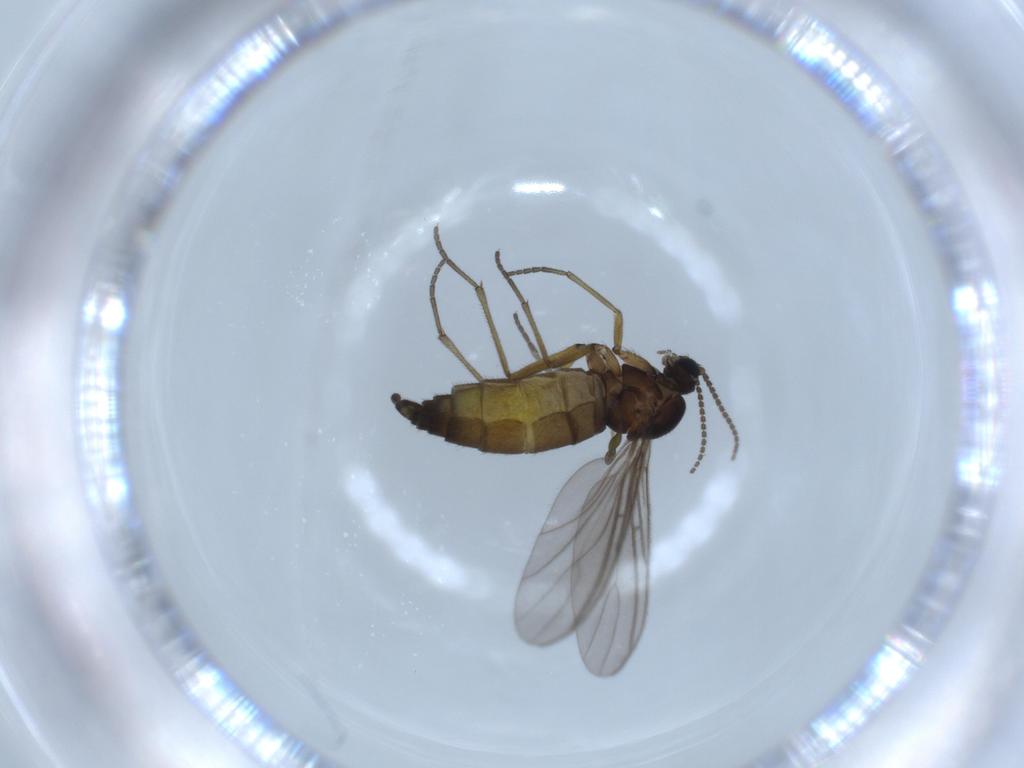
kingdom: Animalia
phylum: Arthropoda
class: Insecta
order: Diptera
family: Sciaridae
